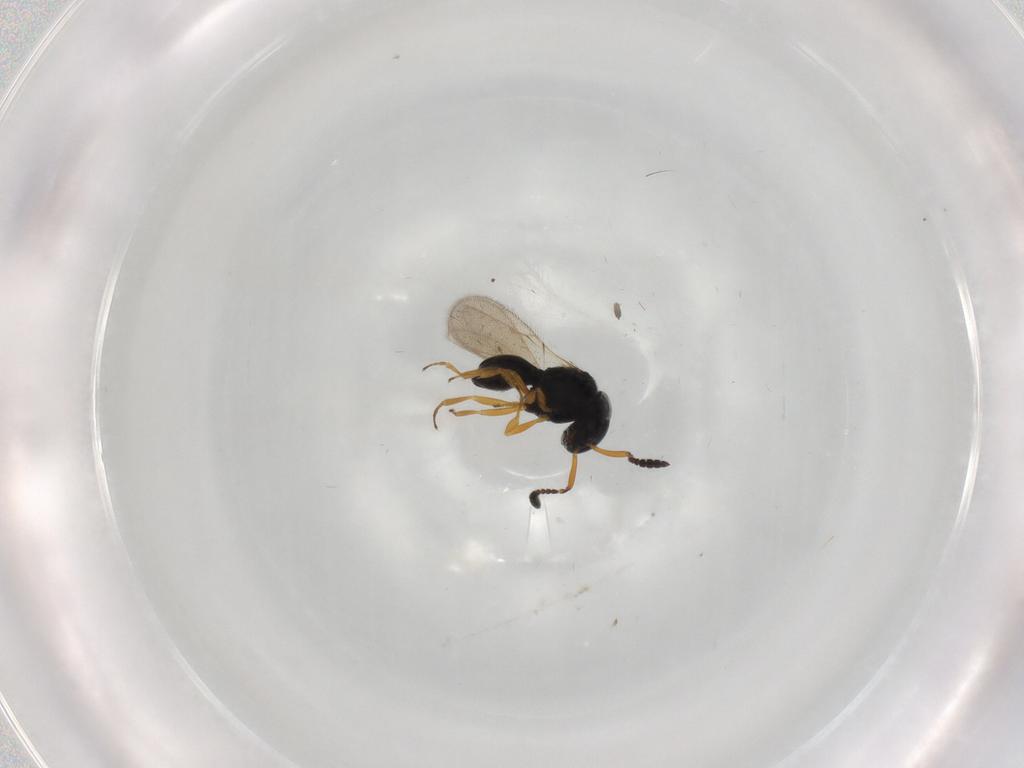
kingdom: Animalia
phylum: Arthropoda
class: Insecta
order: Hymenoptera
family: Scelionidae
